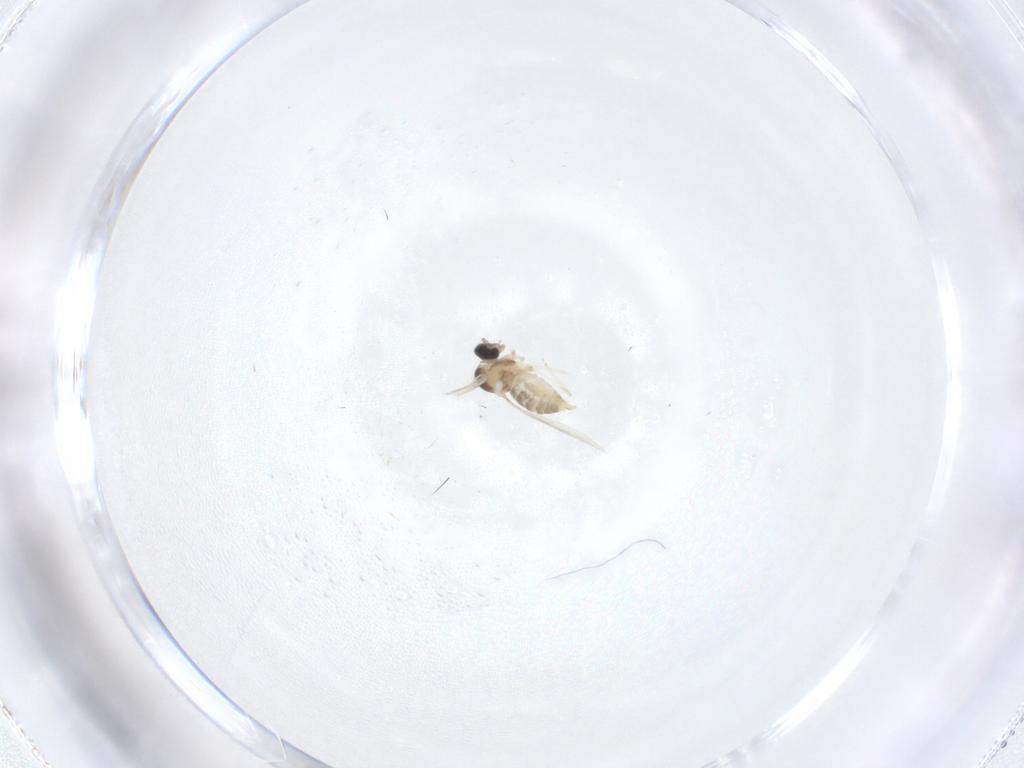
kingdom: Animalia
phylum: Arthropoda
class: Insecta
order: Diptera
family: Cecidomyiidae
